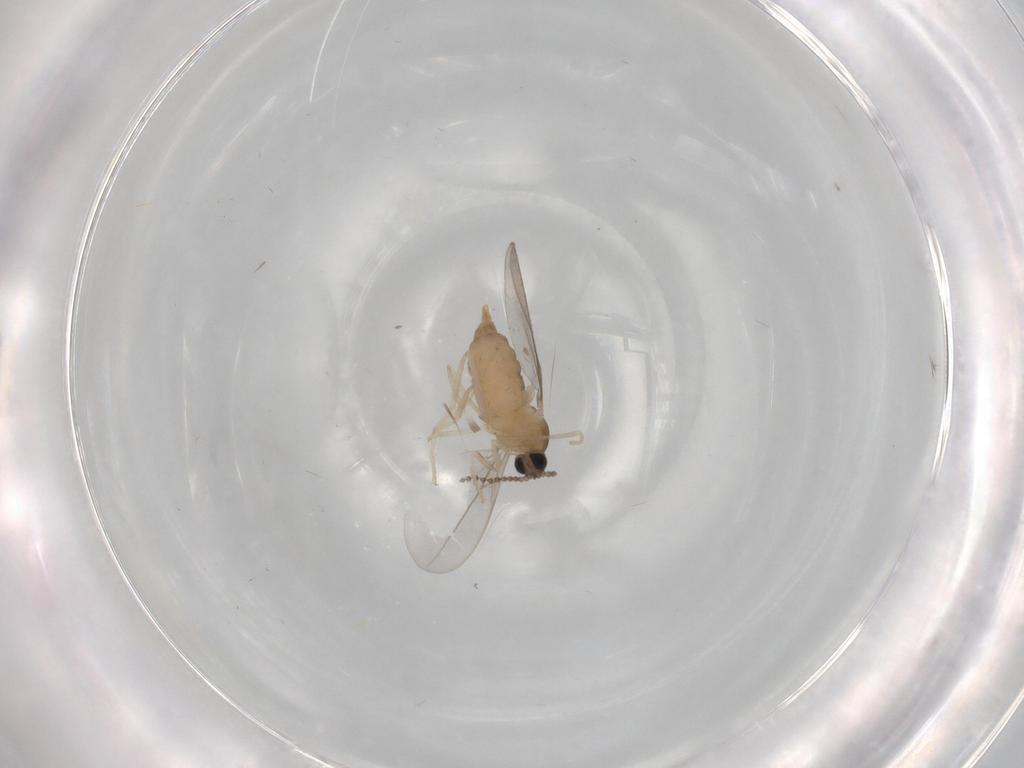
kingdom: Animalia
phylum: Arthropoda
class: Insecta
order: Diptera
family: Cecidomyiidae
